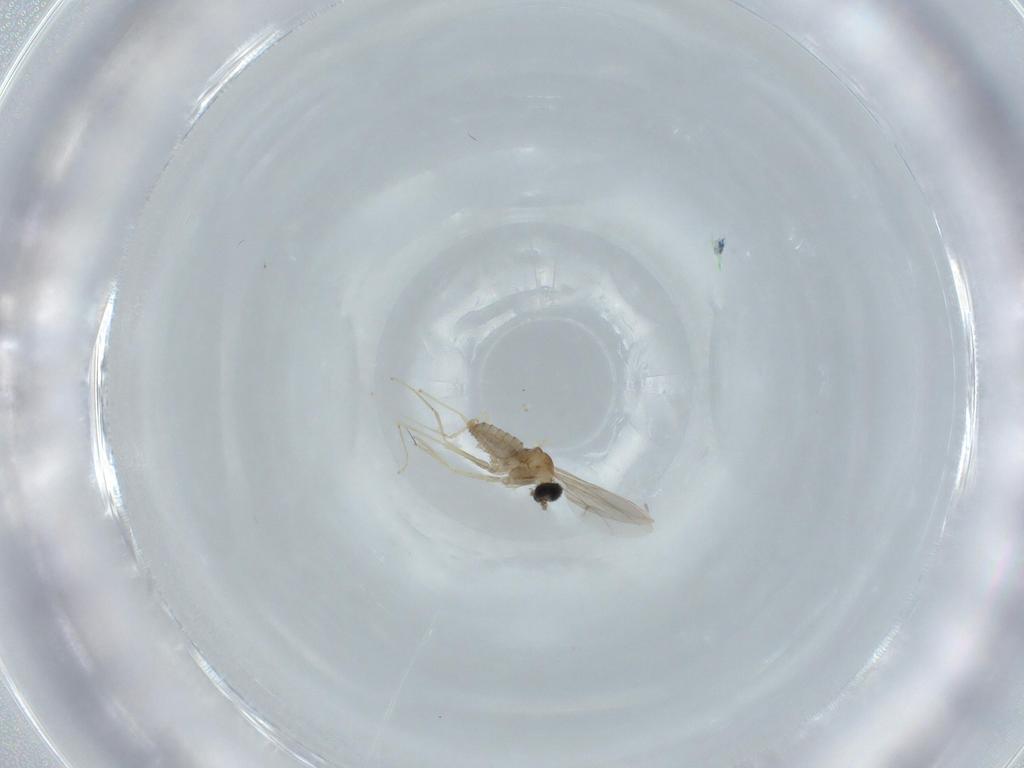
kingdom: Animalia
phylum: Arthropoda
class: Insecta
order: Diptera
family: Cecidomyiidae
